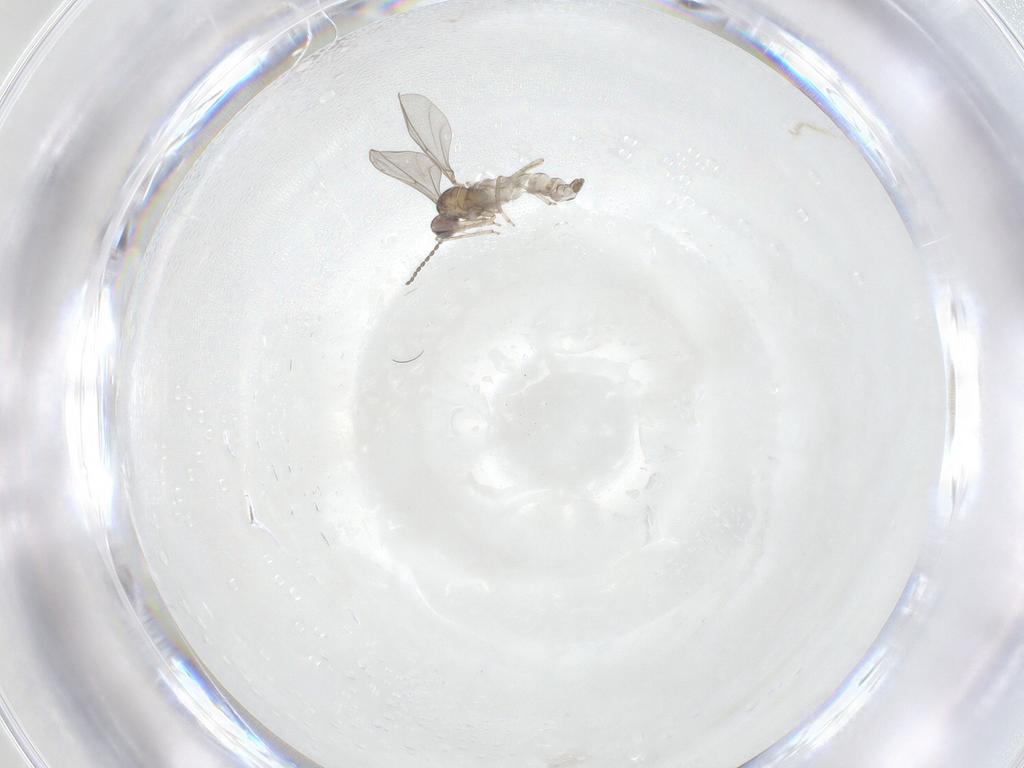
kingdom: Animalia
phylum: Arthropoda
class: Insecta
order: Diptera
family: Cecidomyiidae
